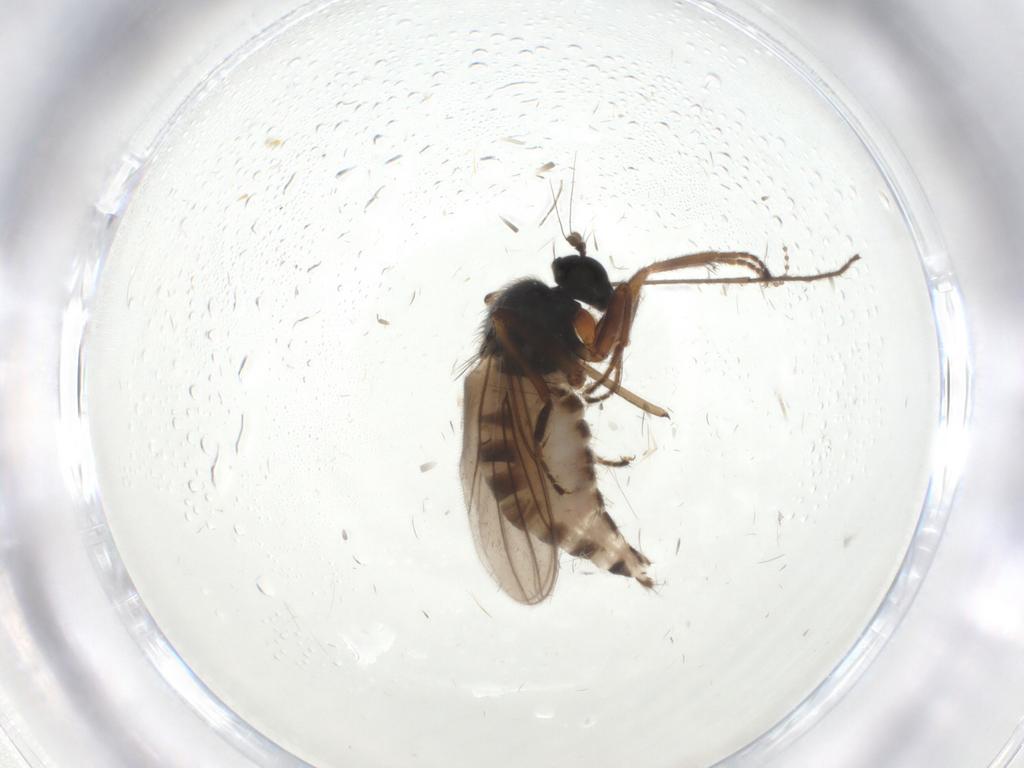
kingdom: Animalia
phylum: Arthropoda
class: Insecta
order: Diptera
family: Hybotidae
